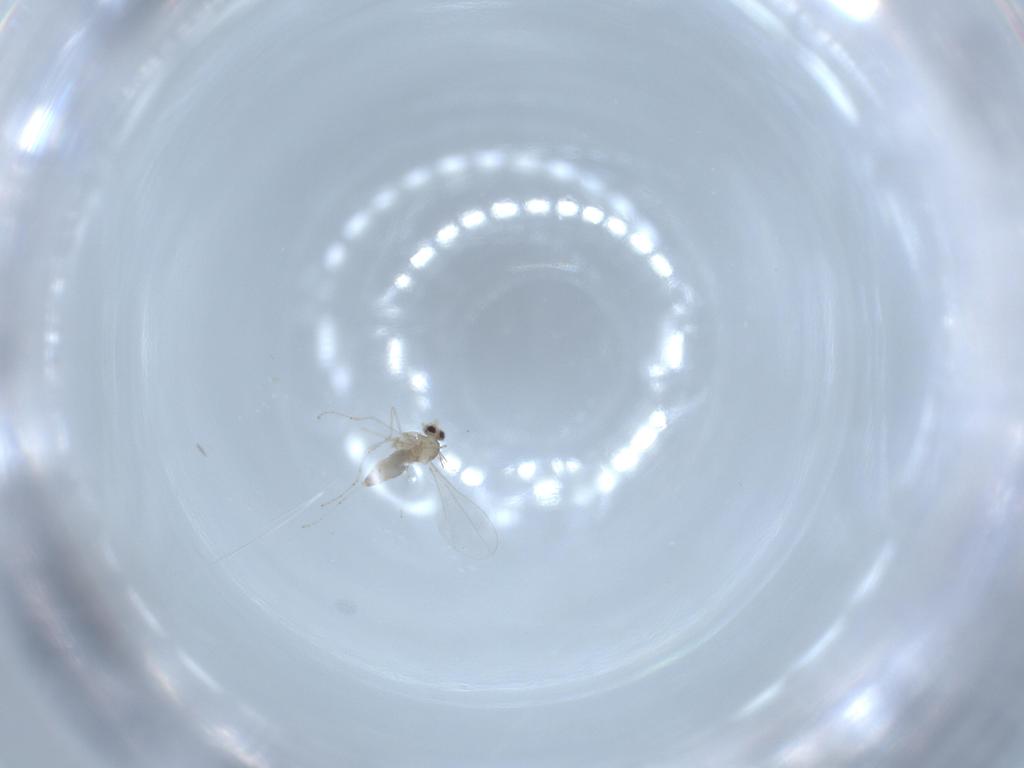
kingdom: Animalia
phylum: Arthropoda
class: Insecta
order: Diptera
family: Cecidomyiidae
